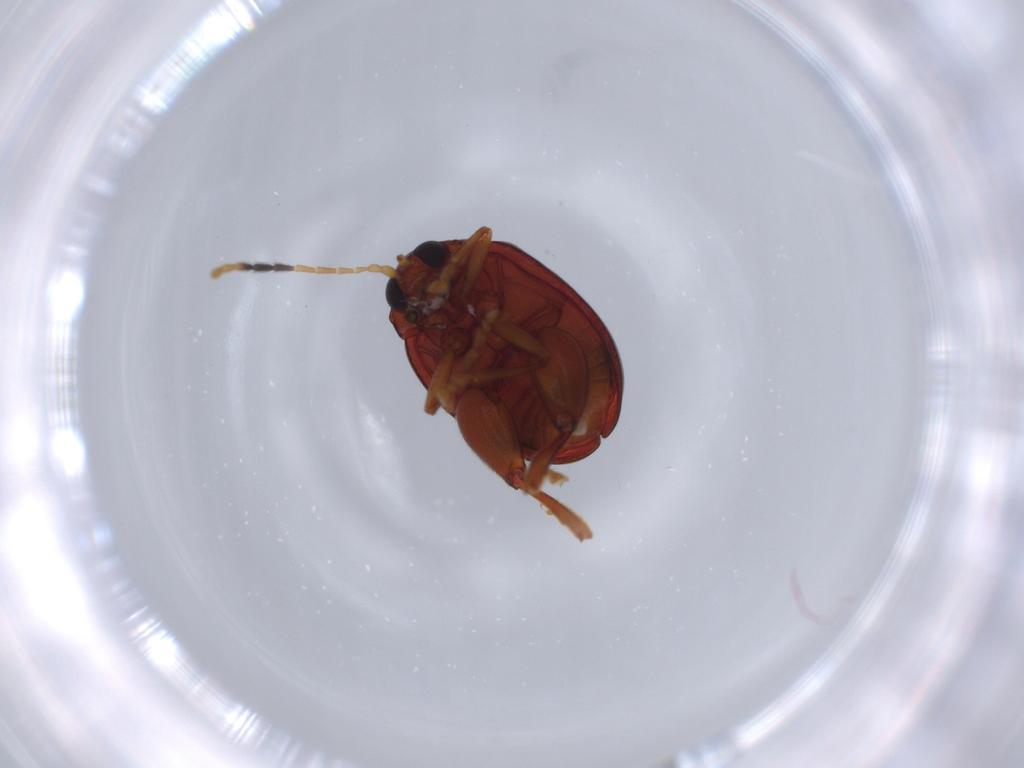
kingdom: Animalia
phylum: Arthropoda
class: Insecta
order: Coleoptera
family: Chrysomelidae
